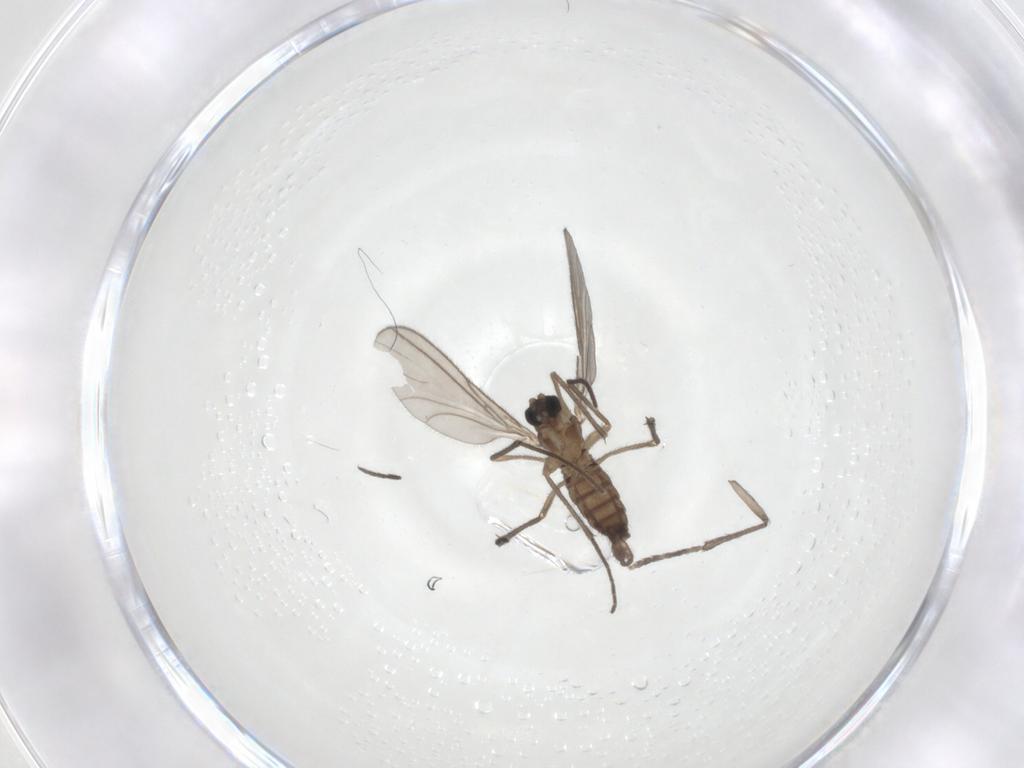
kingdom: Animalia
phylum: Arthropoda
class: Insecta
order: Diptera
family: Sciaridae
